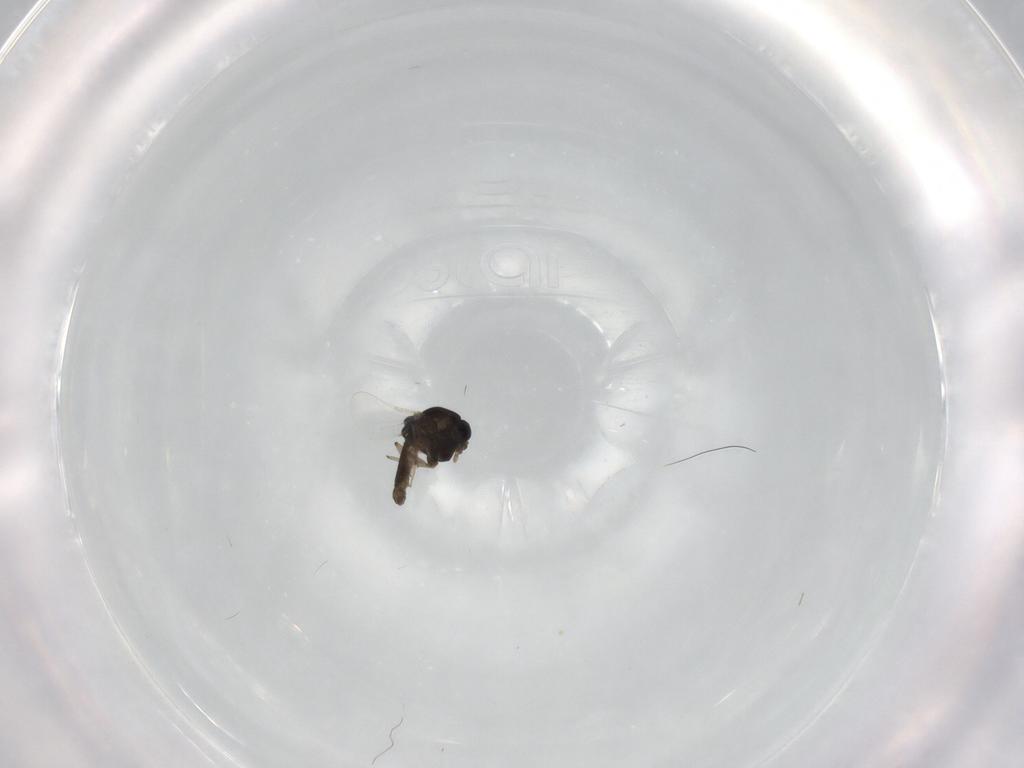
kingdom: Animalia
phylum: Arthropoda
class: Insecta
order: Diptera
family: Chironomidae
